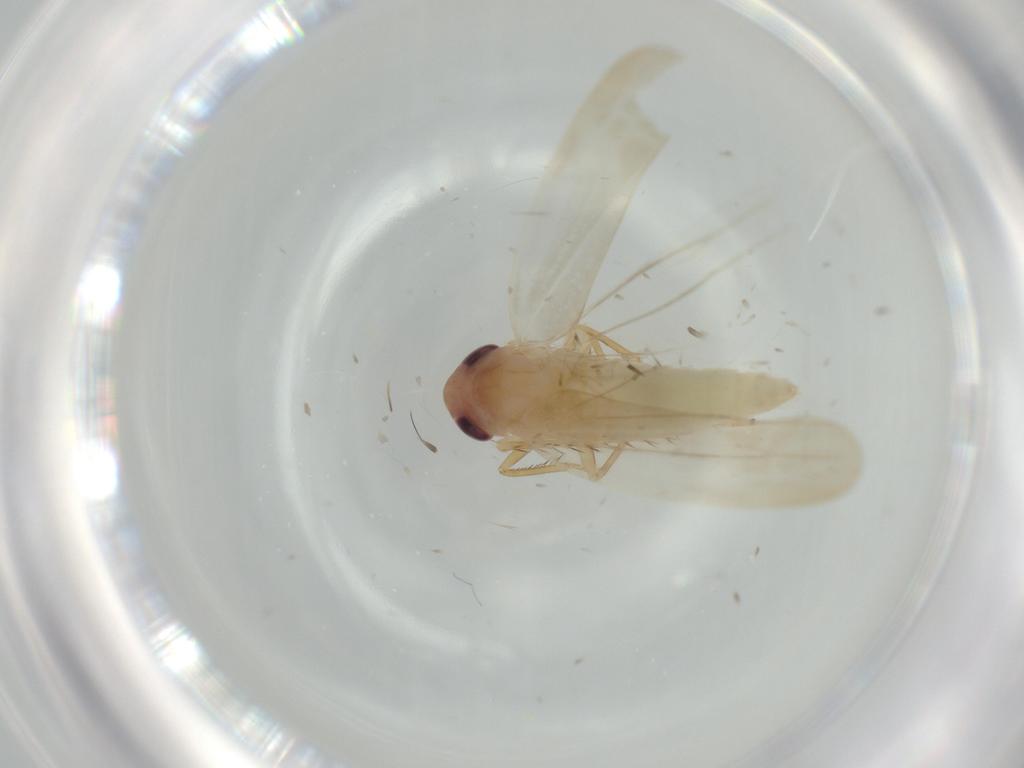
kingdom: Animalia
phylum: Arthropoda
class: Insecta
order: Hemiptera
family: Cicadellidae
